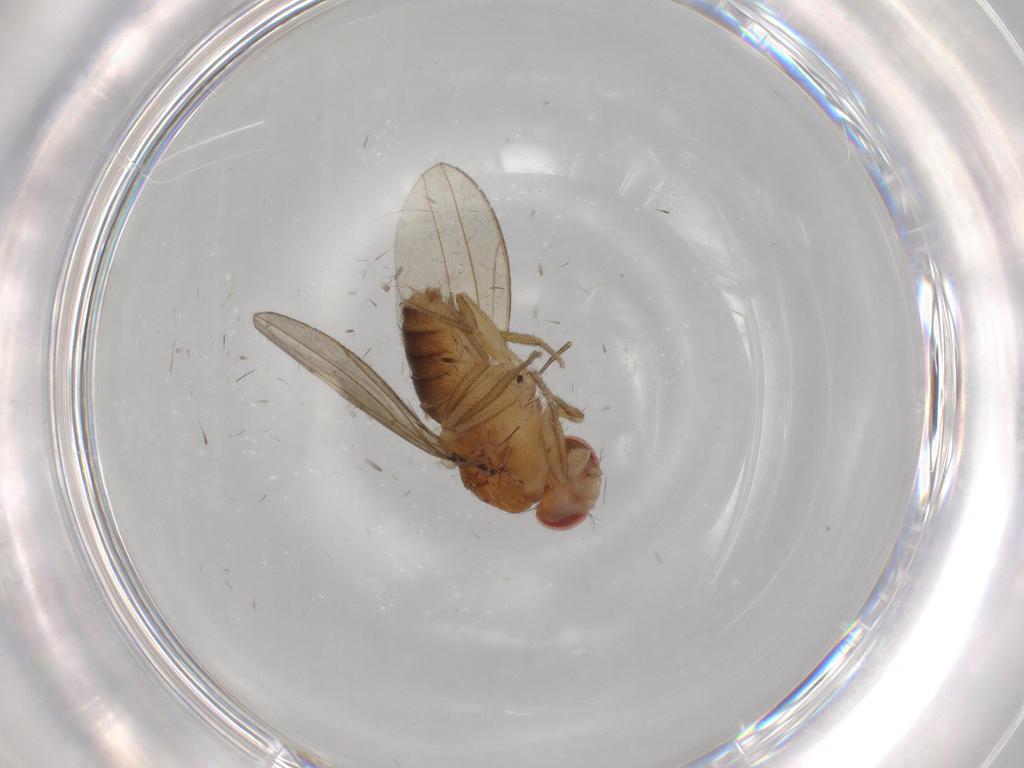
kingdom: Animalia
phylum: Arthropoda
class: Insecta
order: Diptera
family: Drosophilidae
